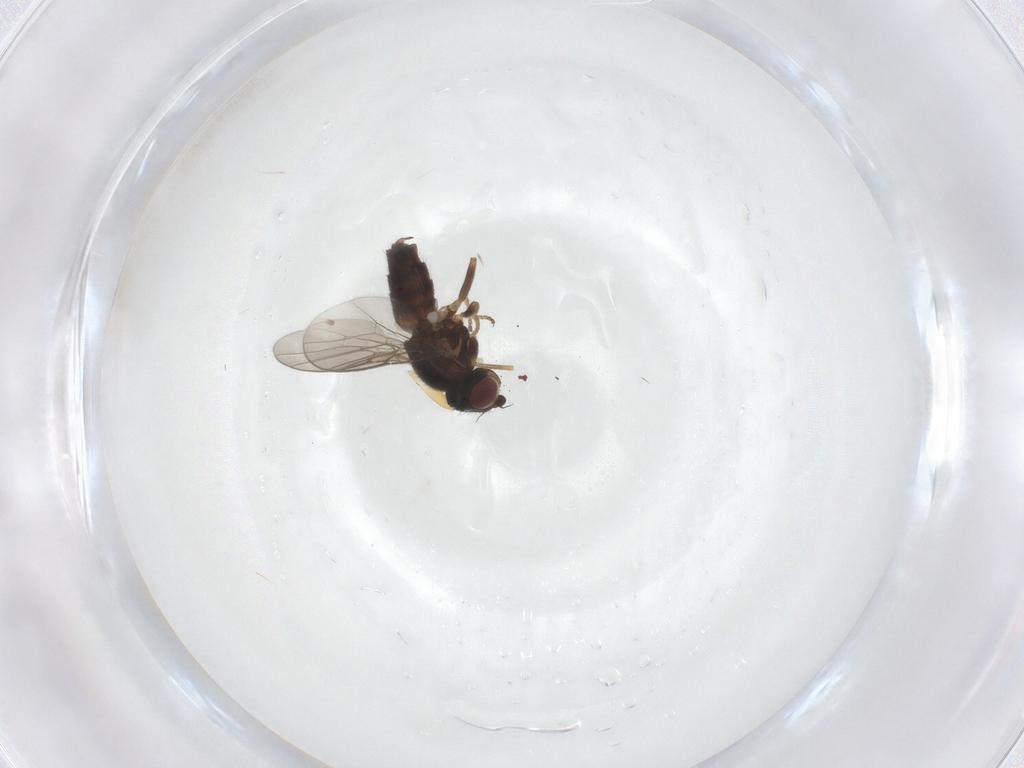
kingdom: Animalia
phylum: Arthropoda
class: Insecta
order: Diptera
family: Chloropidae
